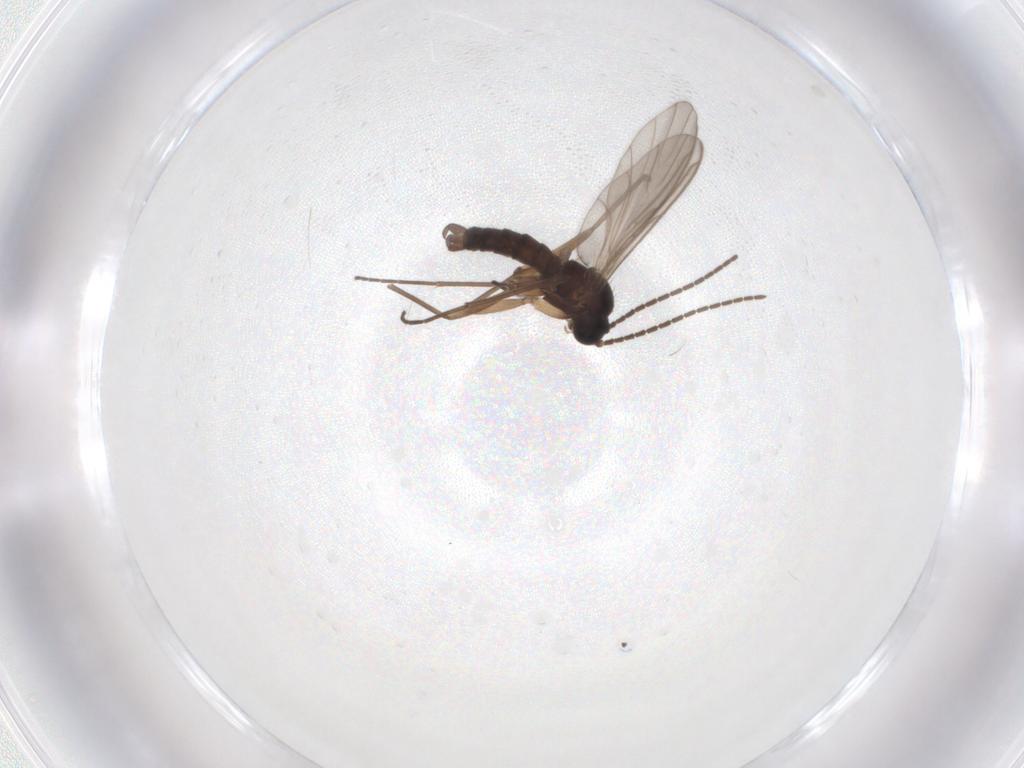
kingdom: Animalia
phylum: Arthropoda
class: Insecta
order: Diptera
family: Sciaridae
